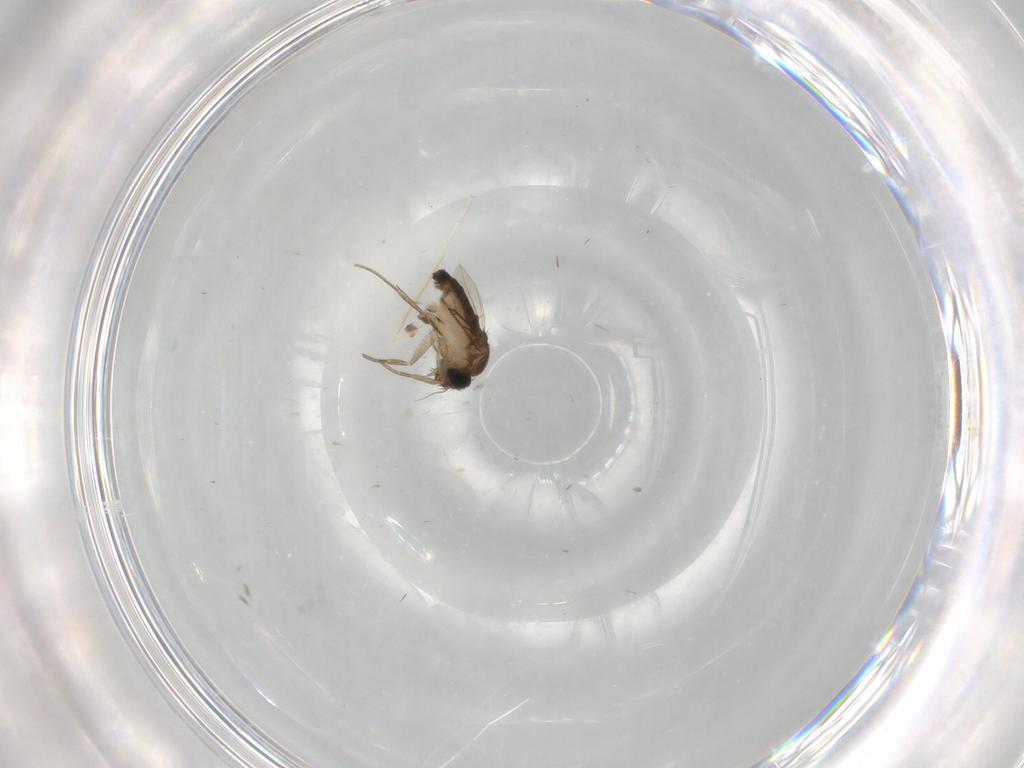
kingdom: Animalia
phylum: Arthropoda
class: Insecta
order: Diptera
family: Phoridae
